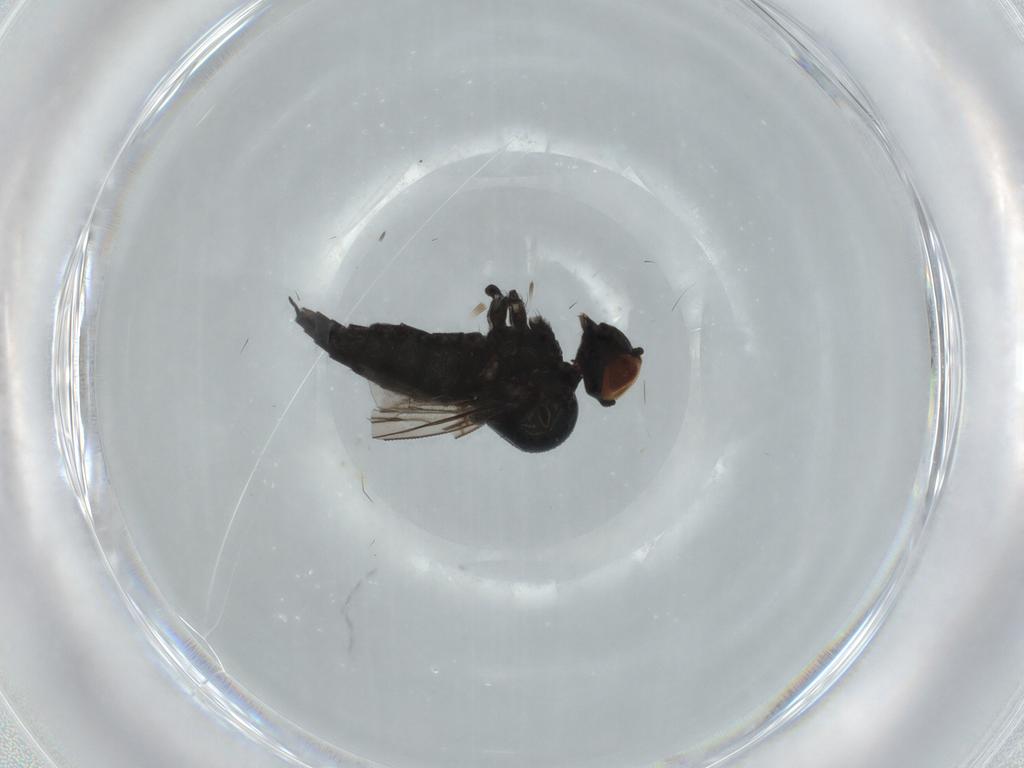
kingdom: Animalia
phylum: Arthropoda
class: Insecta
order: Diptera
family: Hybotidae
